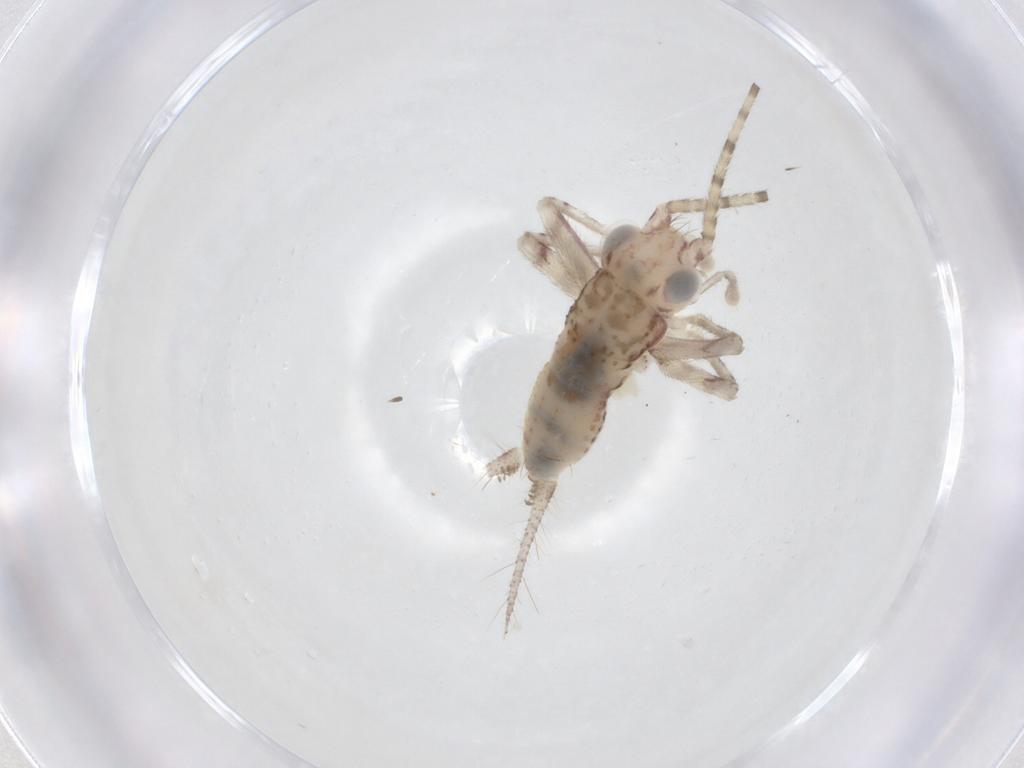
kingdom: Animalia
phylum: Arthropoda
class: Insecta
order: Orthoptera
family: Trigonidiidae
